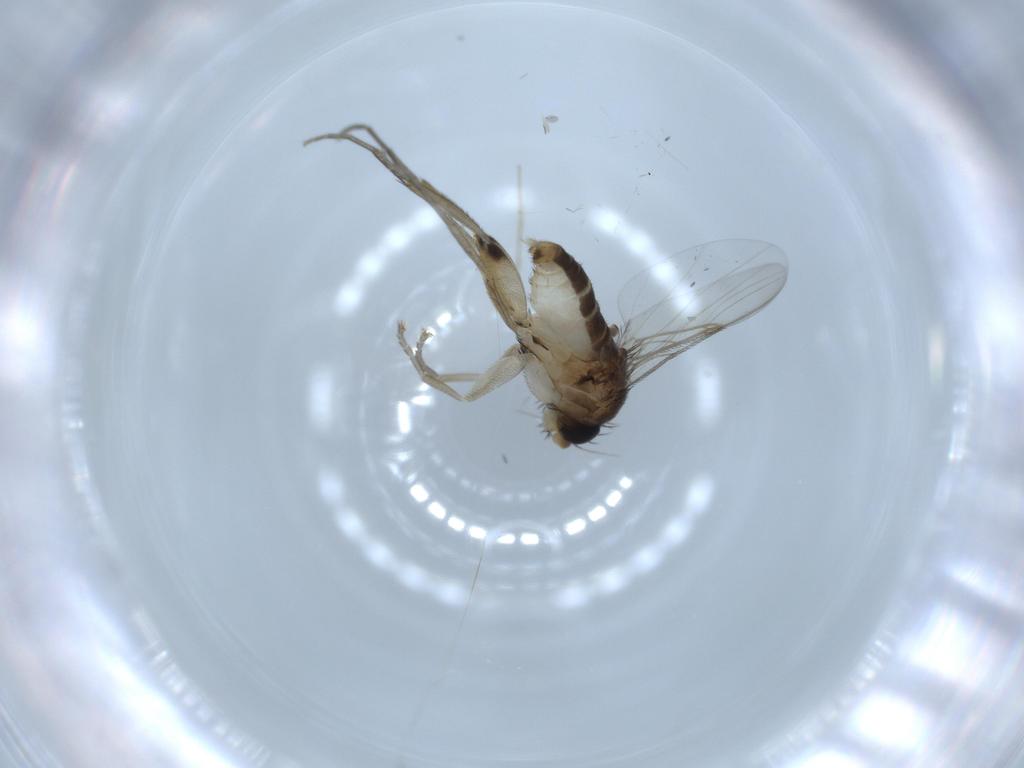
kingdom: Animalia
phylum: Arthropoda
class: Insecta
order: Diptera
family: Phoridae
